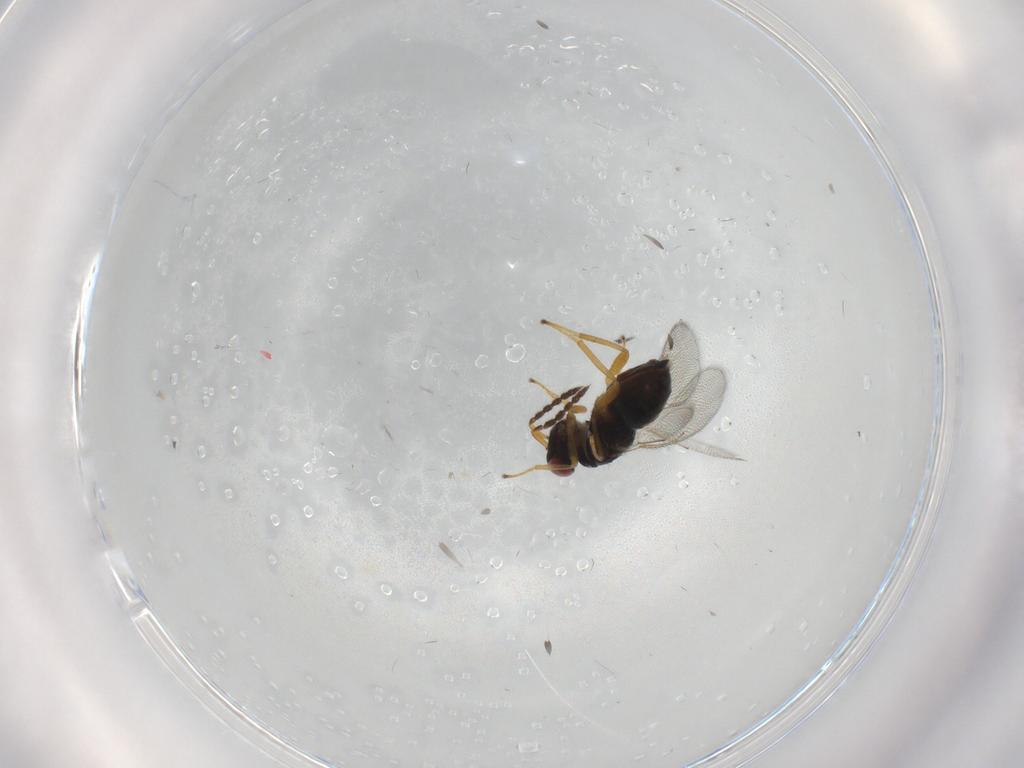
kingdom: Animalia
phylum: Arthropoda
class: Insecta
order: Hymenoptera
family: Eulophidae
